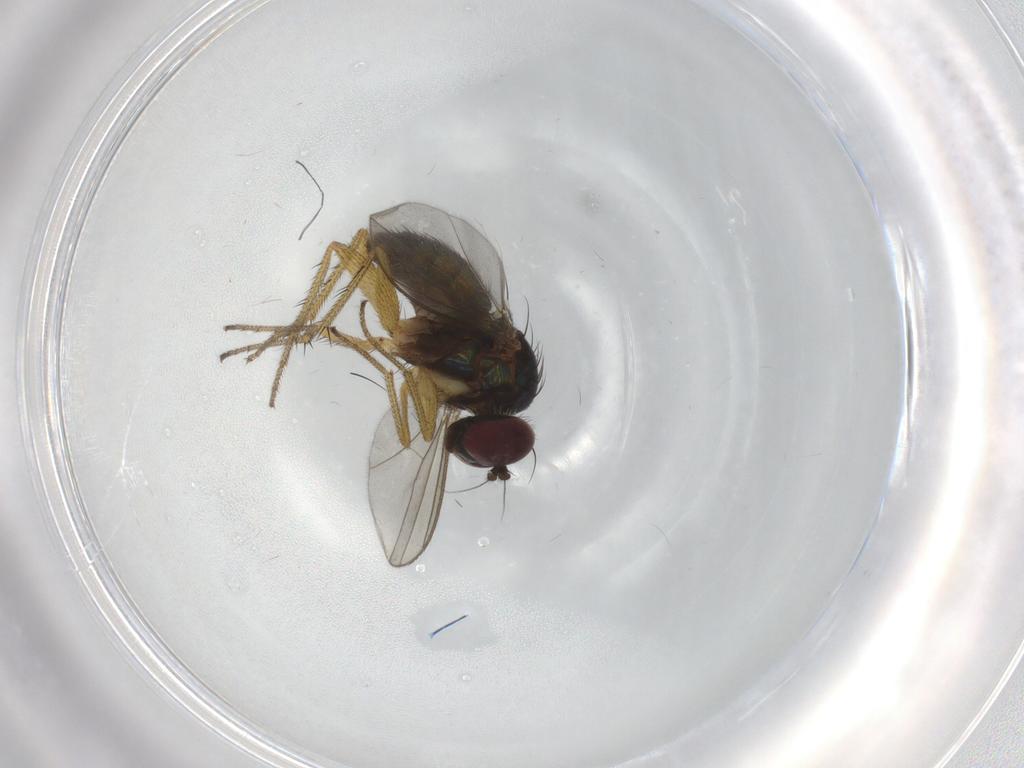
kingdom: Animalia
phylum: Arthropoda
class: Insecta
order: Diptera
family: Dolichopodidae
